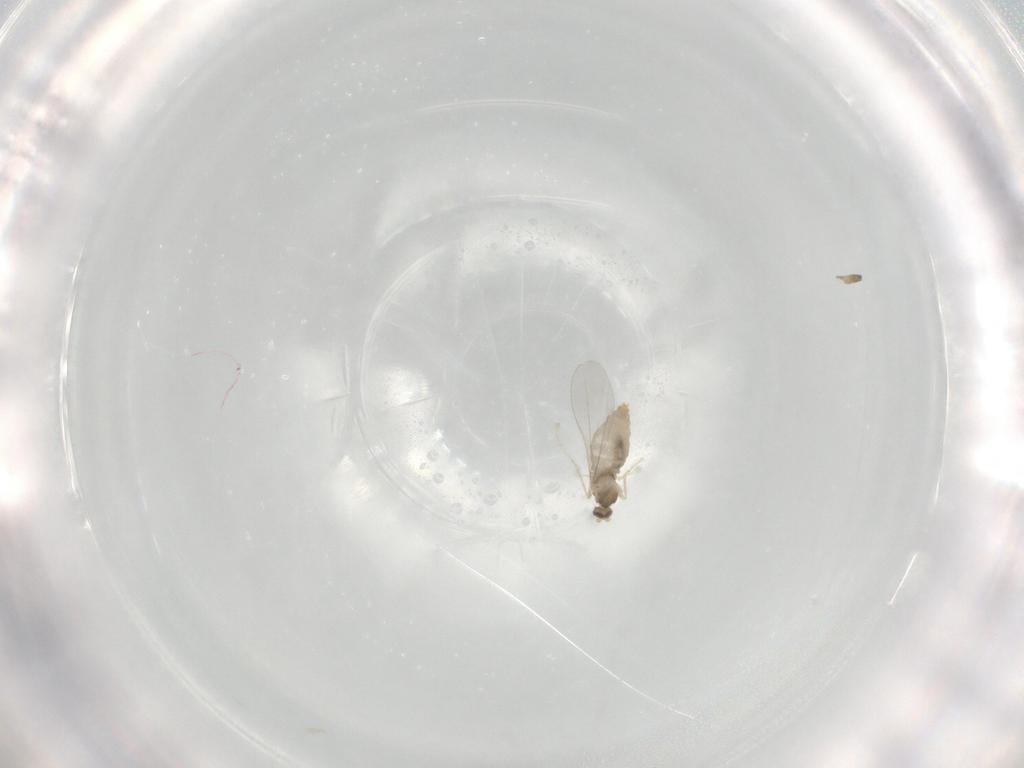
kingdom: Animalia
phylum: Arthropoda
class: Insecta
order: Diptera
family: Cecidomyiidae
